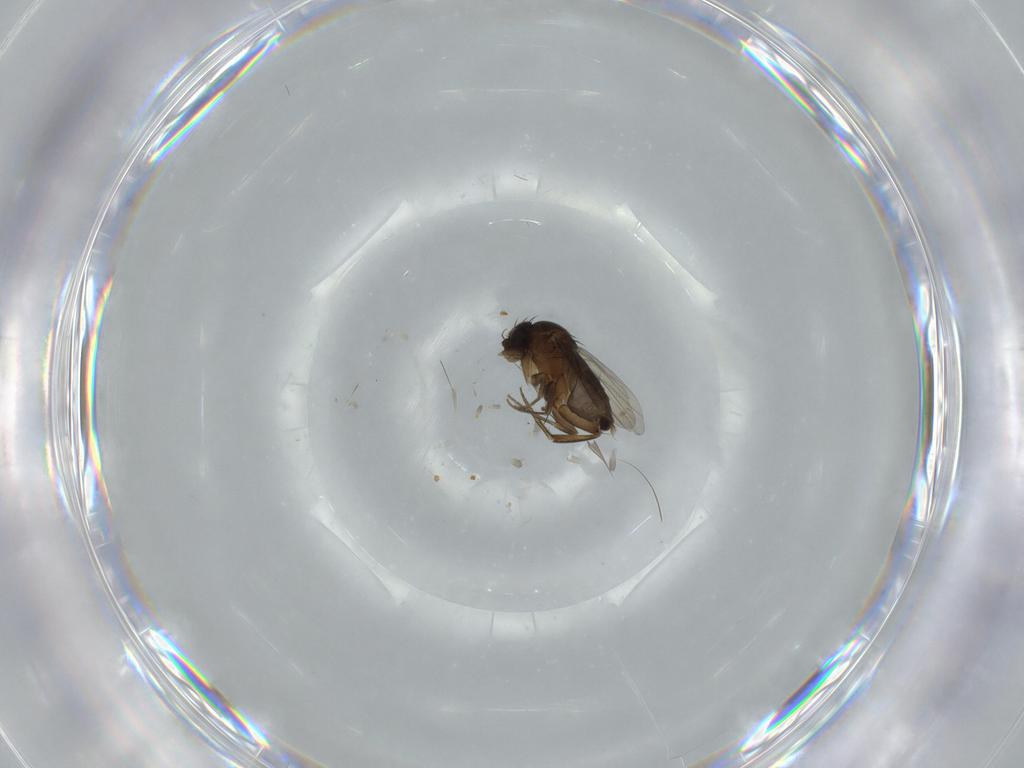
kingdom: Animalia
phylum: Arthropoda
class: Insecta
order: Diptera
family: Phoridae
